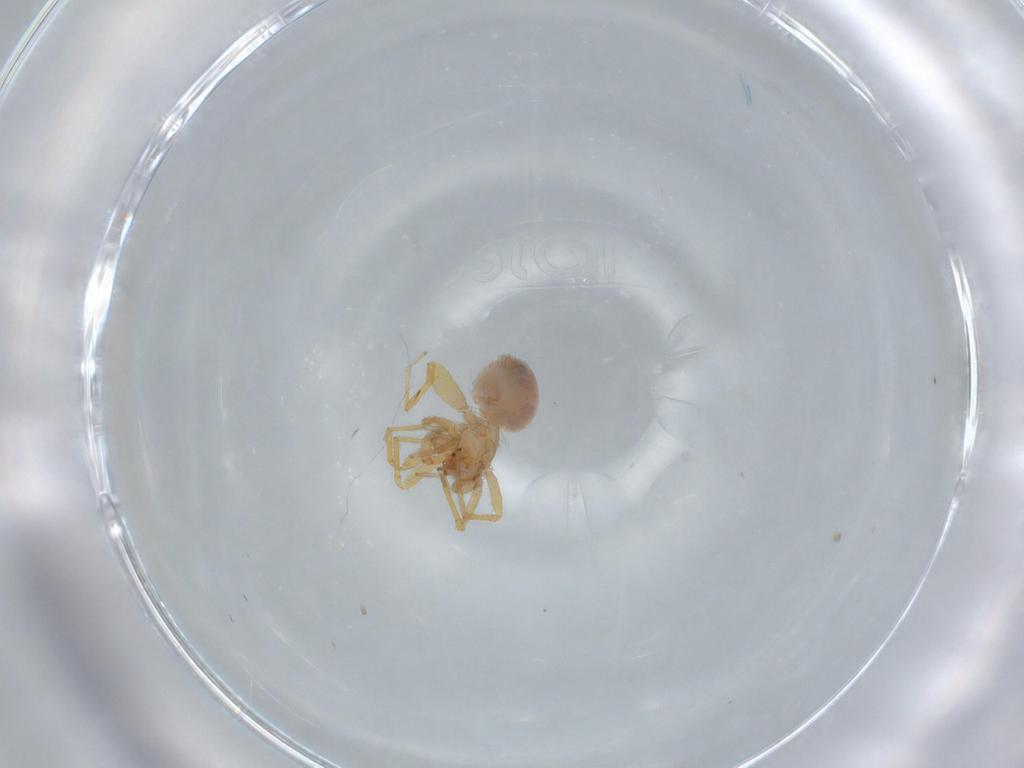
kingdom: Animalia
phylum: Arthropoda
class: Arachnida
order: Araneae
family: Oonopidae
